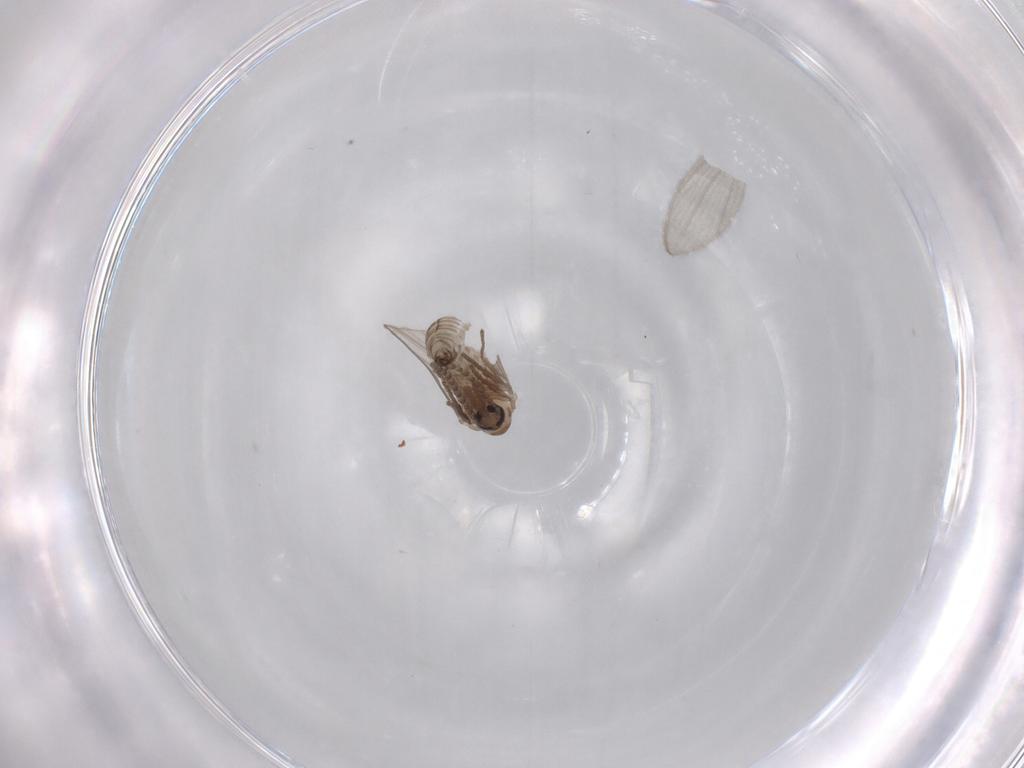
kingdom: Animalia
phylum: Arthropoda
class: Insecta
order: Diptera
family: Psychodidae
